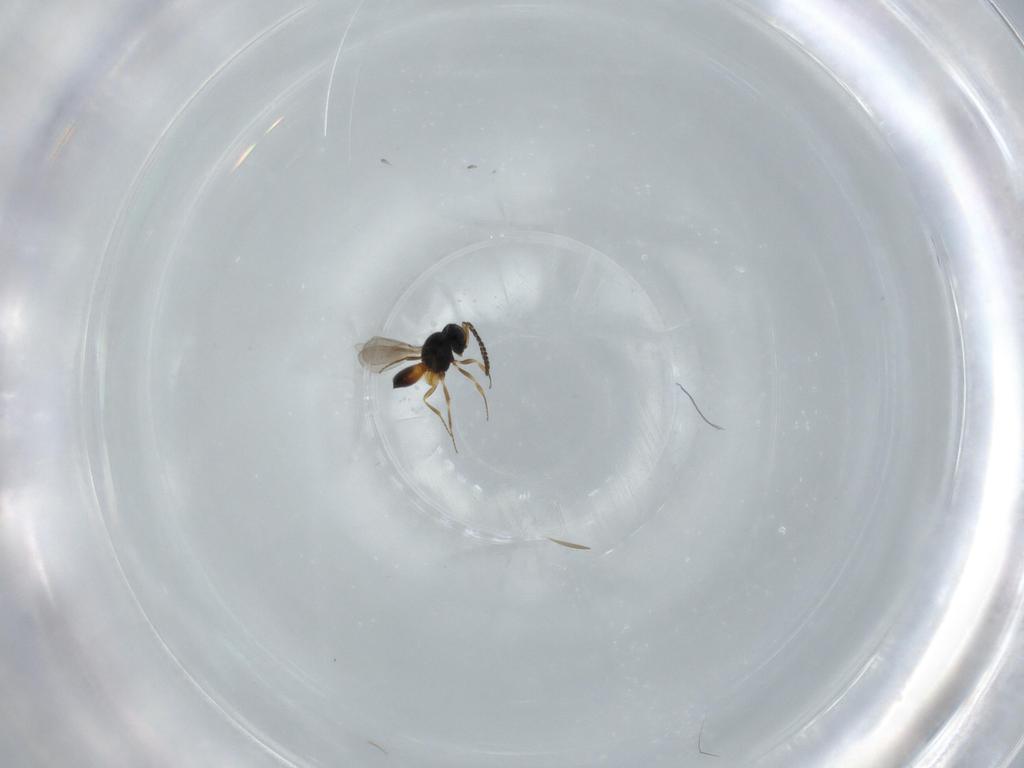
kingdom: Animalia
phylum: Arthropoda
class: Insecta
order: Hymenoptera
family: Scelionidae
